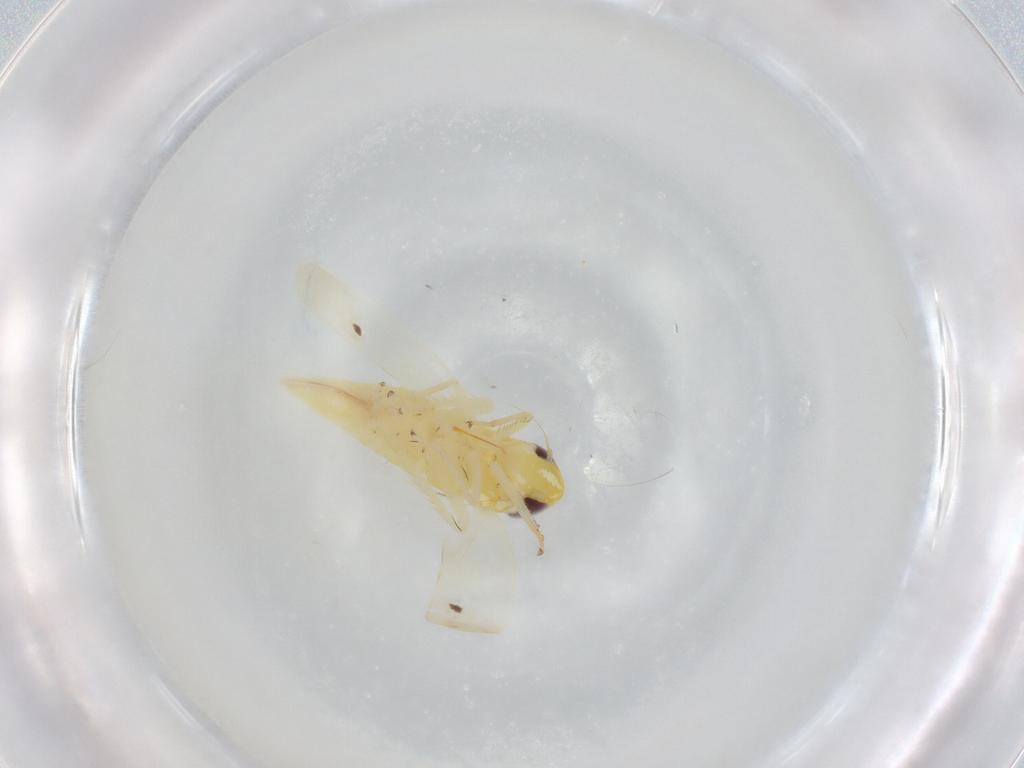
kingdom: Animalia
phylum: Arthropoda
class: Insecta
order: Hemiptera
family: Cicadellidae
